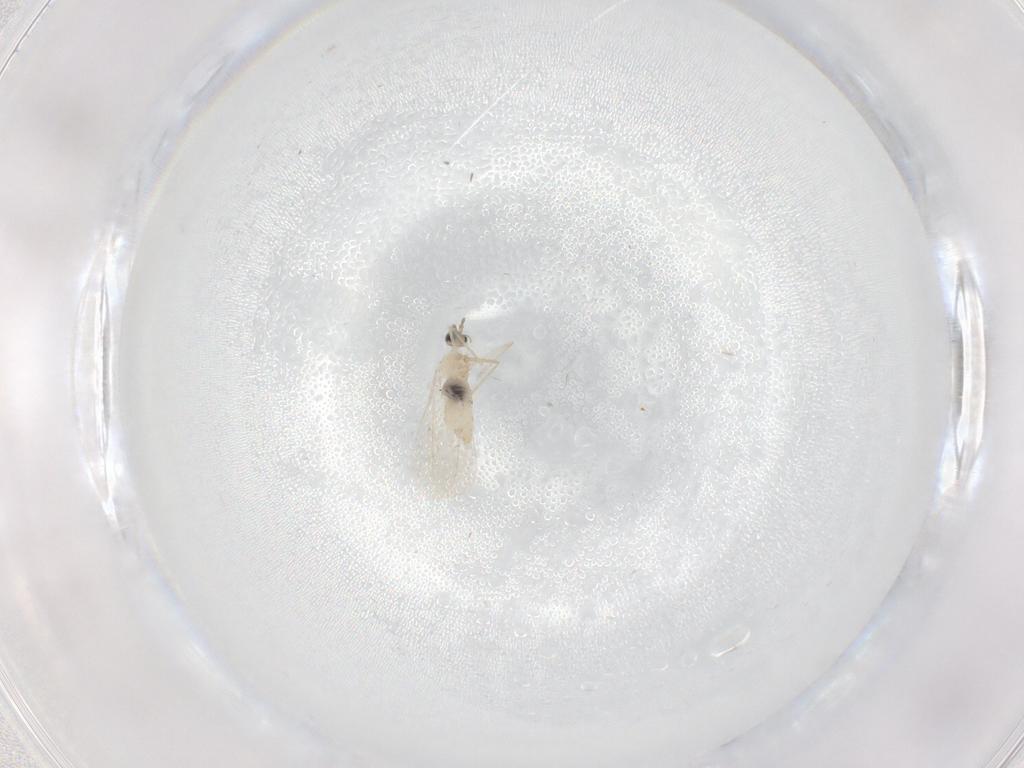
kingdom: Animalia
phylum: Arthropoda
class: Insecta
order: Diptera
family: Cecidomyiidae
